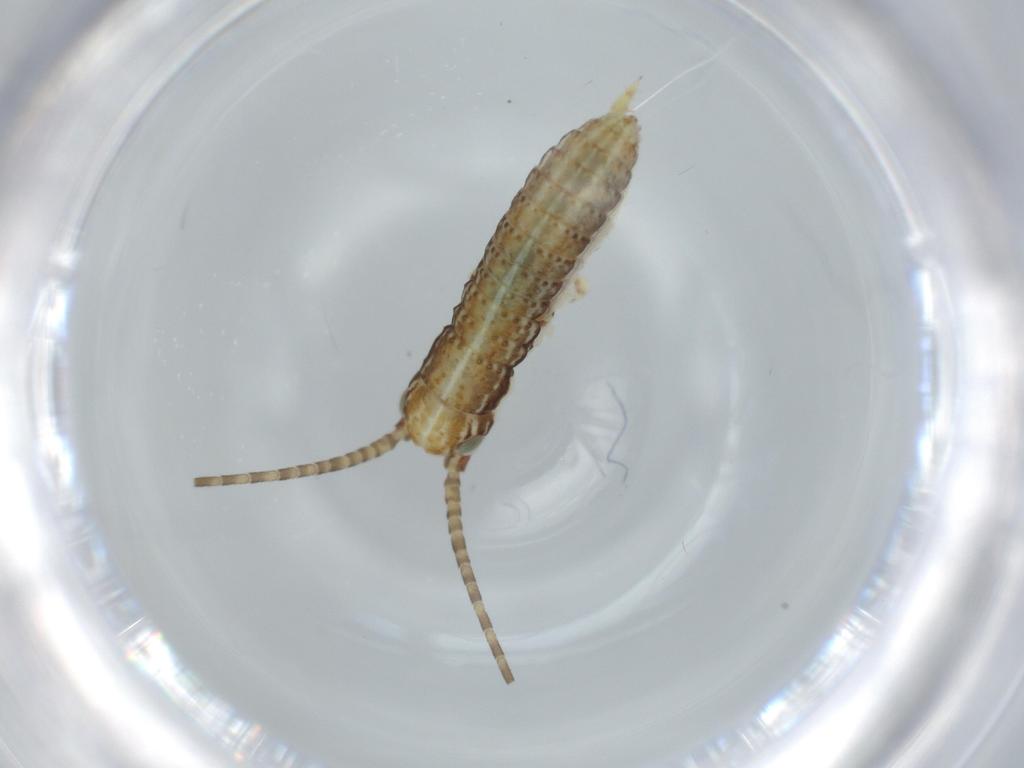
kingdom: Animalia
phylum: Arthropoda
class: Insecta
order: Orthoptera
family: Gryllidae
